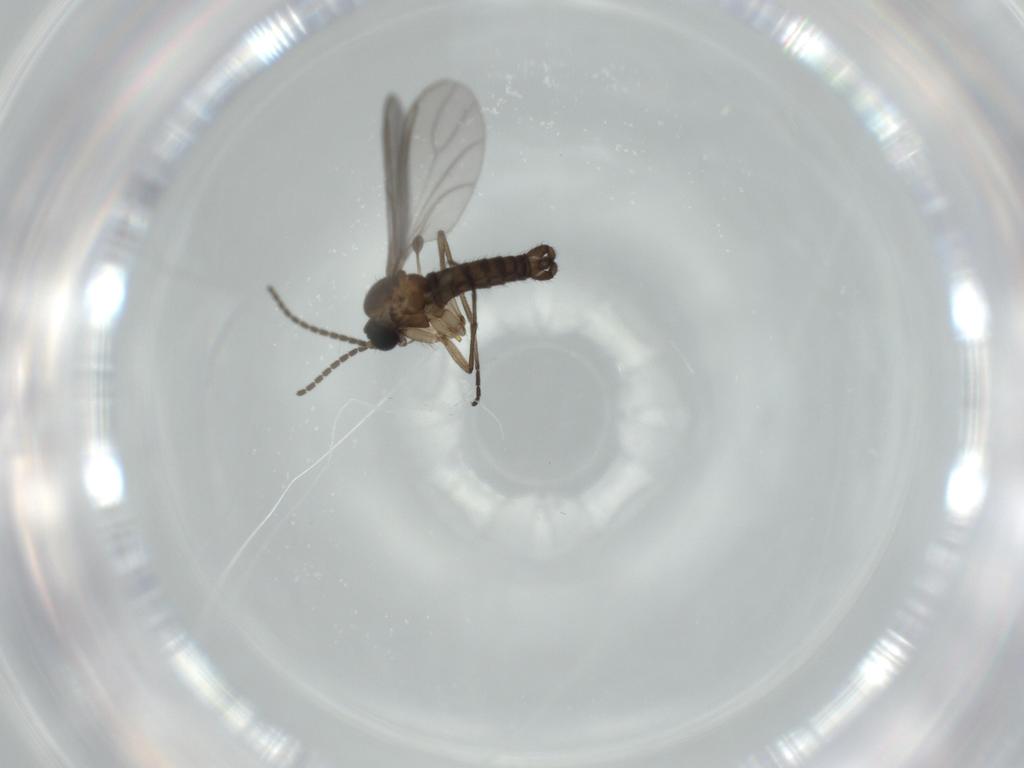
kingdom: Animalia
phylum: Arthropoda
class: Insecta
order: Diptera
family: Sciaridae
